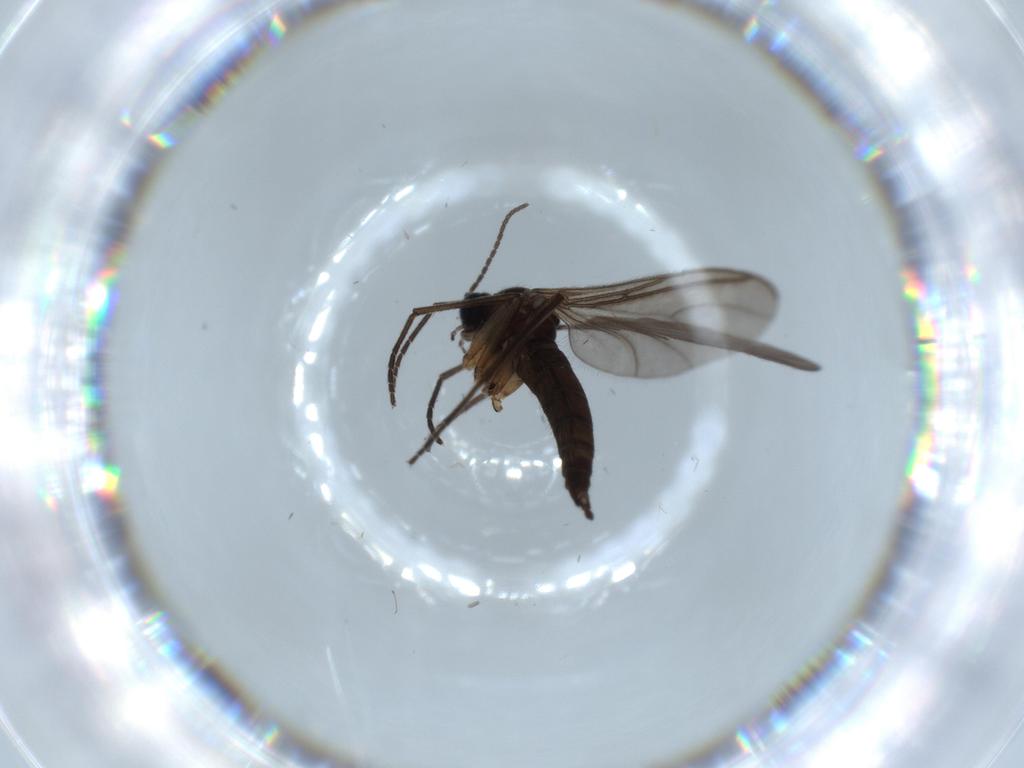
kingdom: Animalia
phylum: Arthropoda
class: Insecta
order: Diptera
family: Sciaridae
